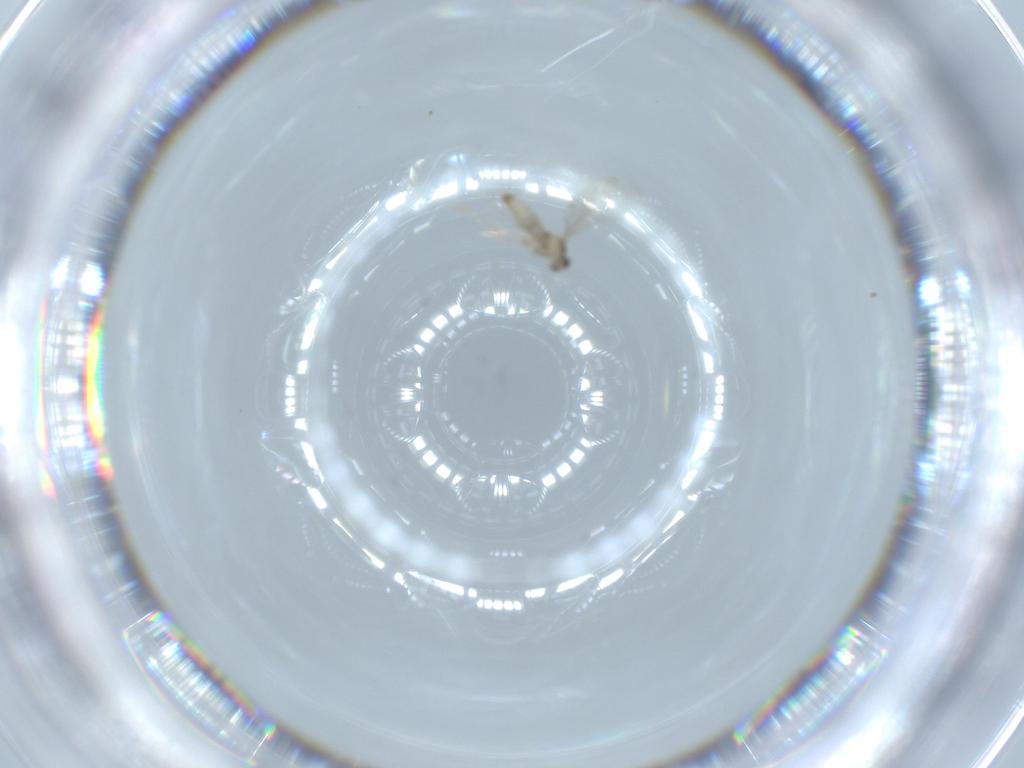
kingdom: Animalia
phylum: Arthropoda
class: Insecta
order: Diptera
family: Cecidomyiidae
